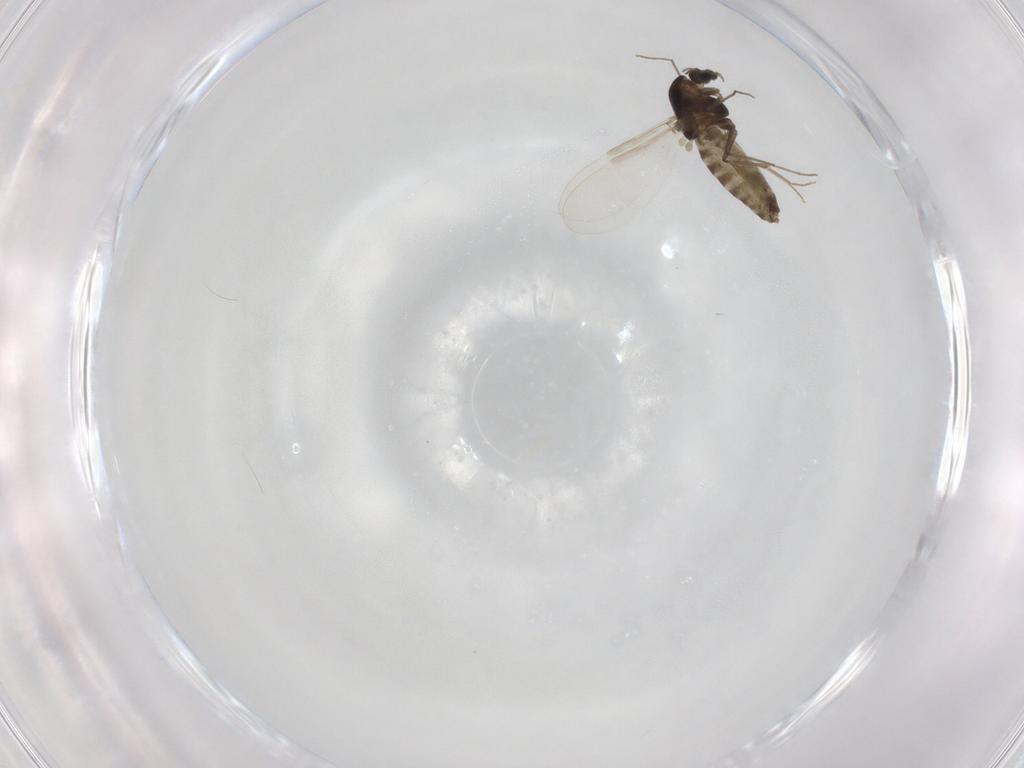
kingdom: Animalia
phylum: Arthropoda
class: Insecta
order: Diptera
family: Chironomidae
